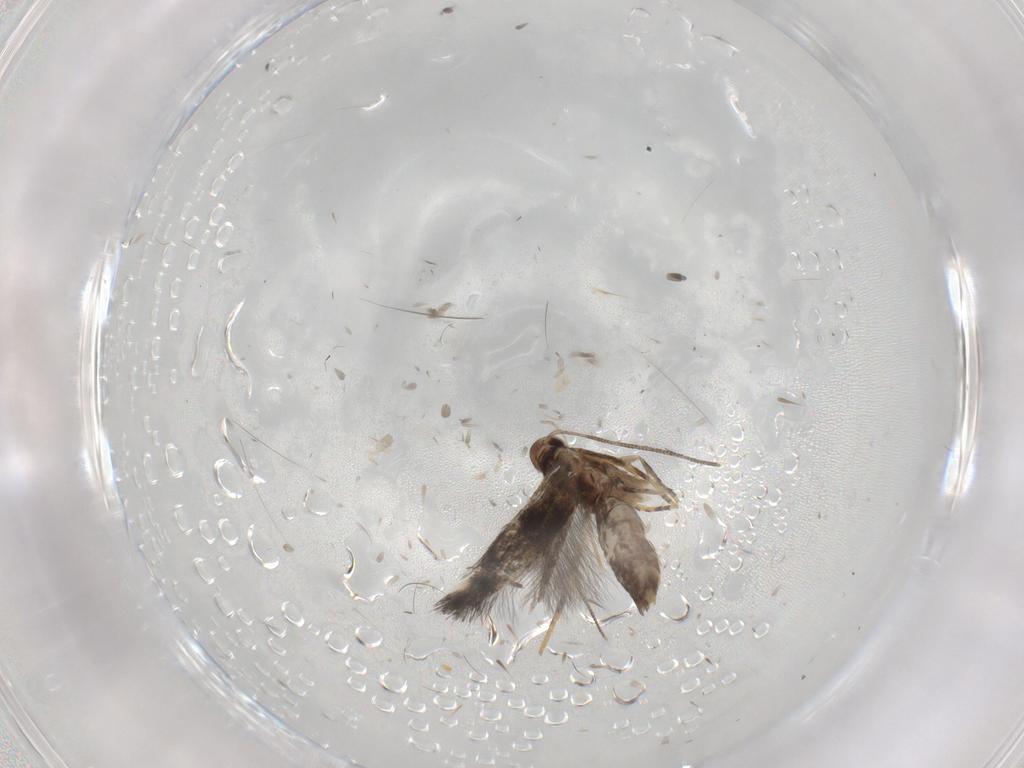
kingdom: Animalia
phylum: Arthropoda
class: Insecta
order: Lepidoptera
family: Elachistidae
